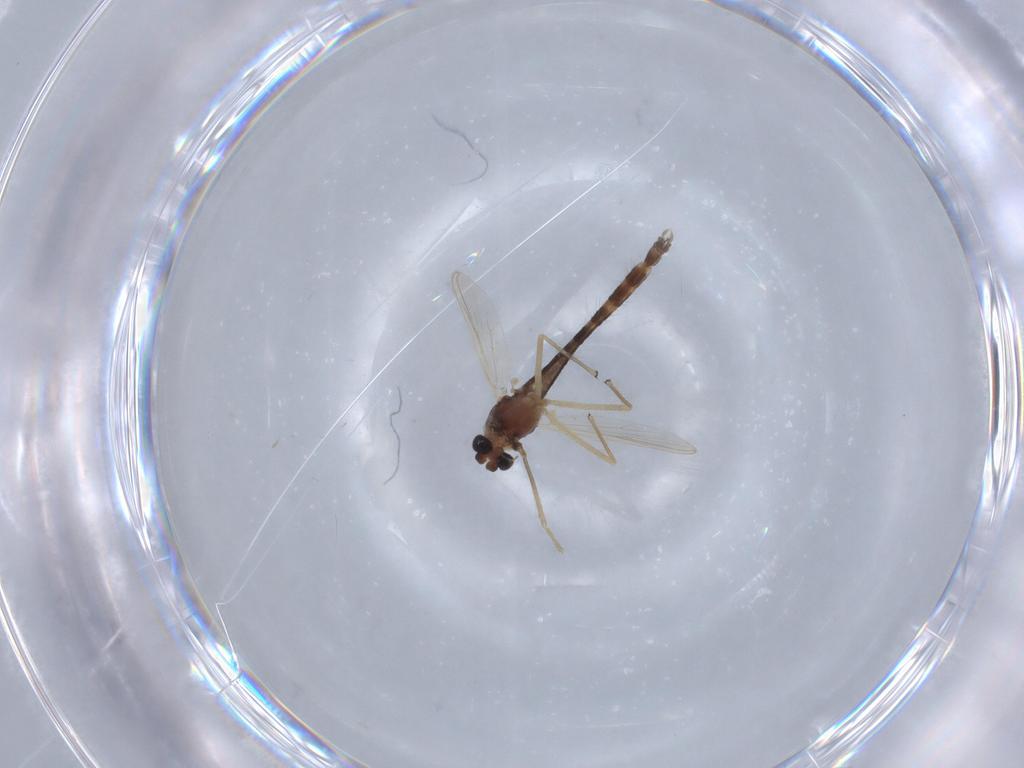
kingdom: Animalia
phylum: Arthropoda
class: Insecta
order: Diptera
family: Chironomidae
